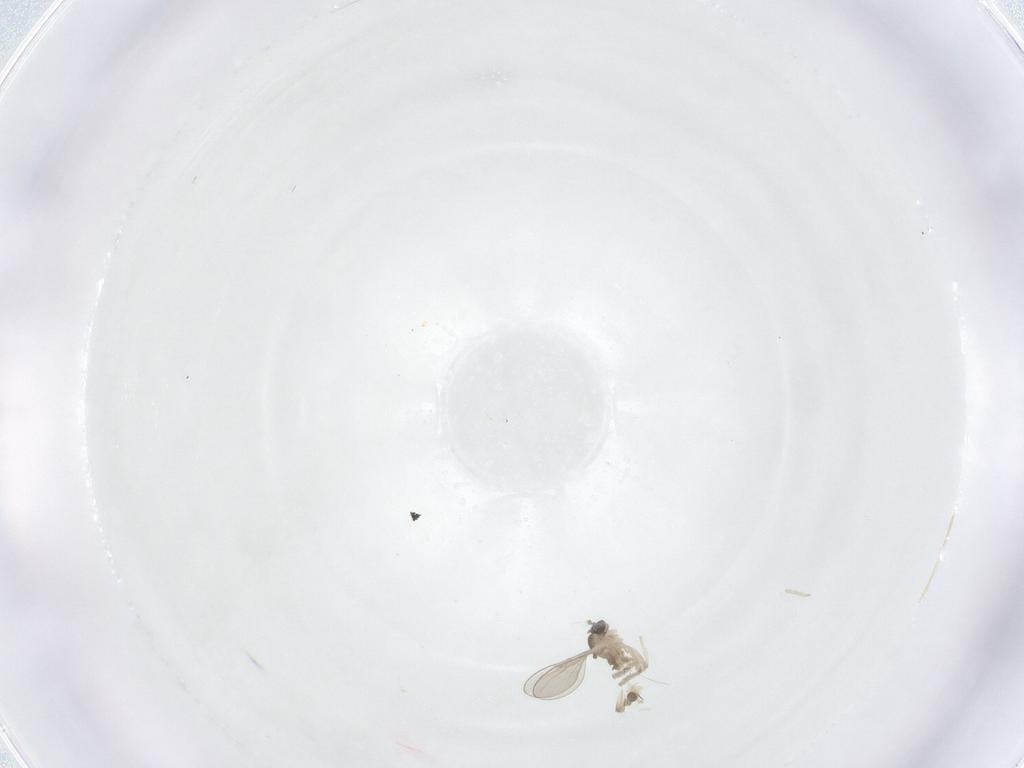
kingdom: Animalia
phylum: Arthropoda
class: Insecta
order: Diptera
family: Cecidomyiidae
